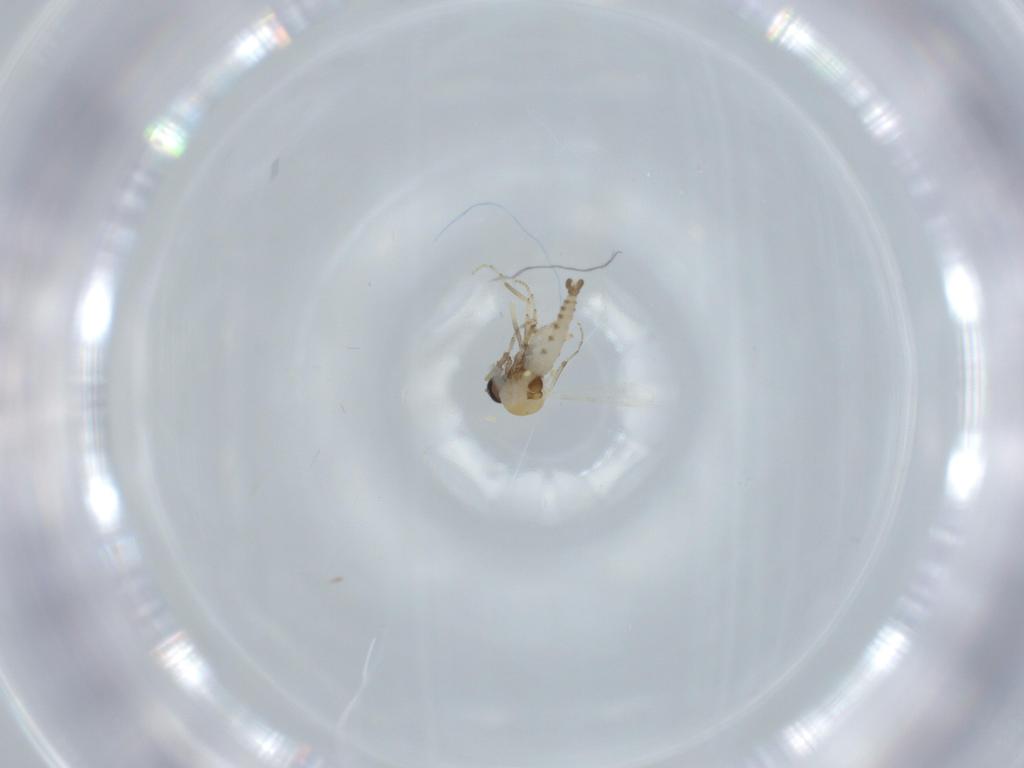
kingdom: Animalia
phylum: Arthropoda
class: Insecta
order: Diptera
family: Ceratopogonidae
